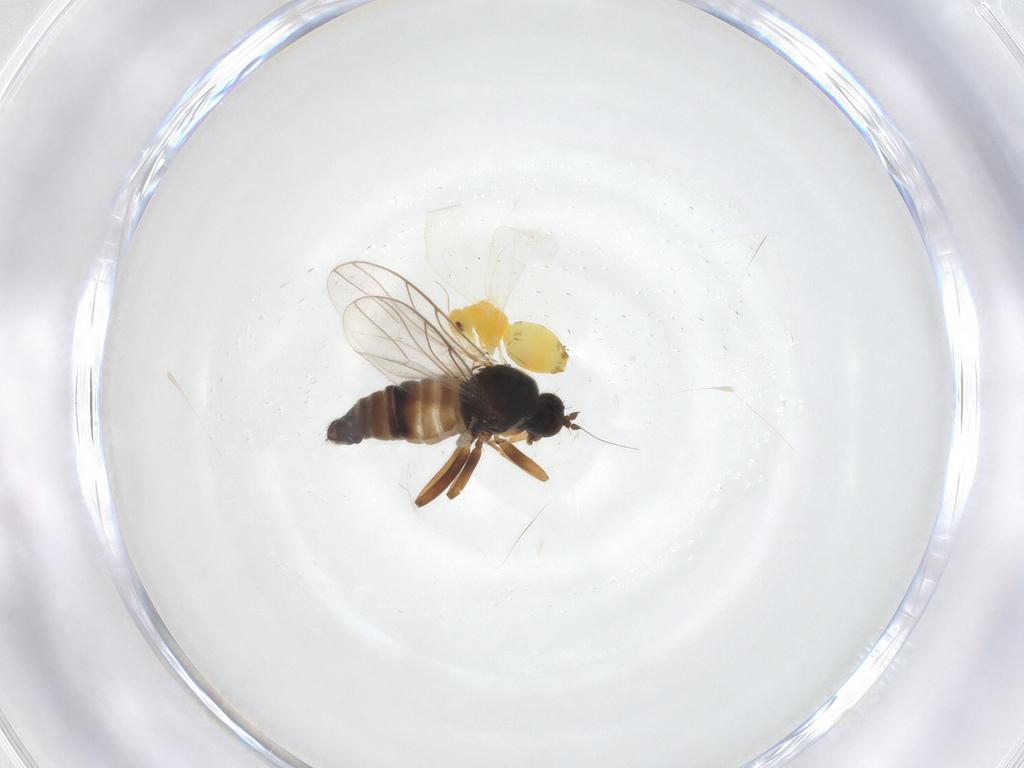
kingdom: Animalia
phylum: Arthropoda
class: Insecta
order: Diptera
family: Hybotidae
